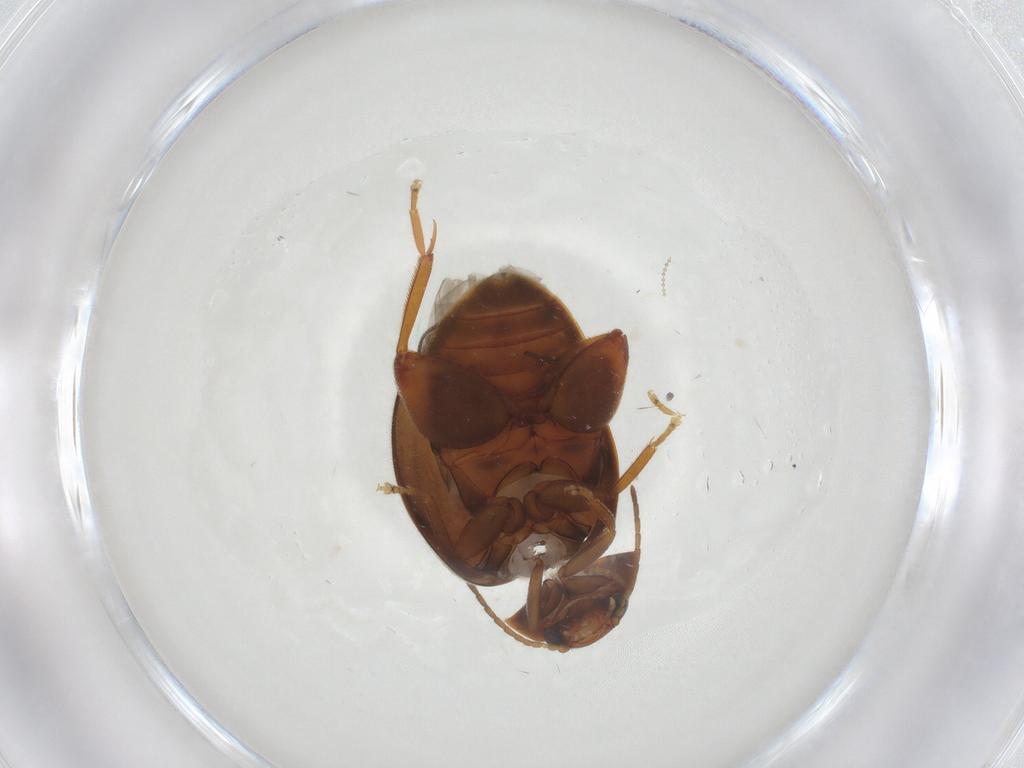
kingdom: Animalia
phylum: Arthropoda
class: Insecta
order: Coleoptera
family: Scirtidae
